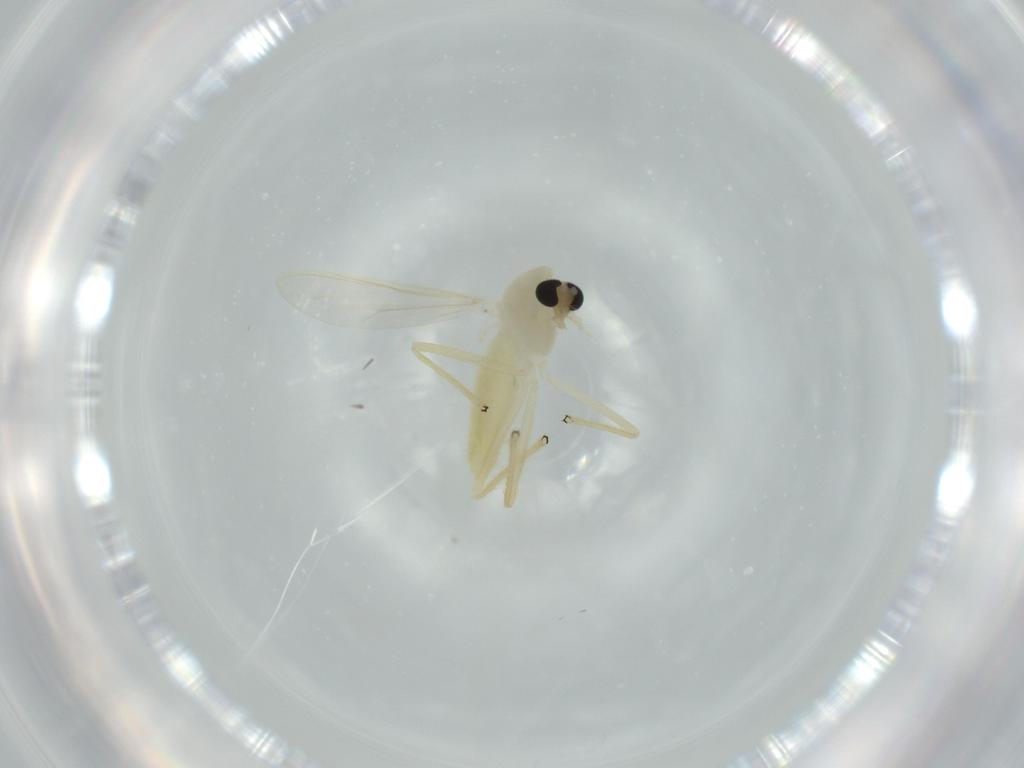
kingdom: Animalia
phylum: Arthropoda
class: Insecta
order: Diptera
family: Chironomidae
